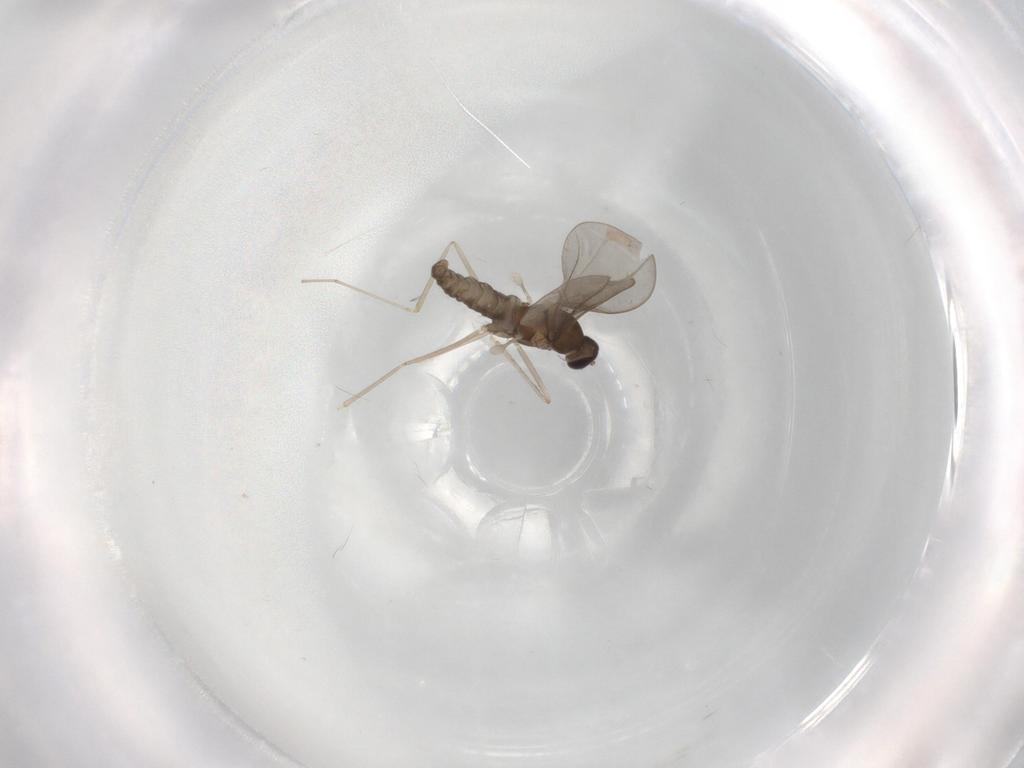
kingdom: Animalia
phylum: Arthropoda
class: Insecta
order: Diptera
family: Cecidomyiidae
